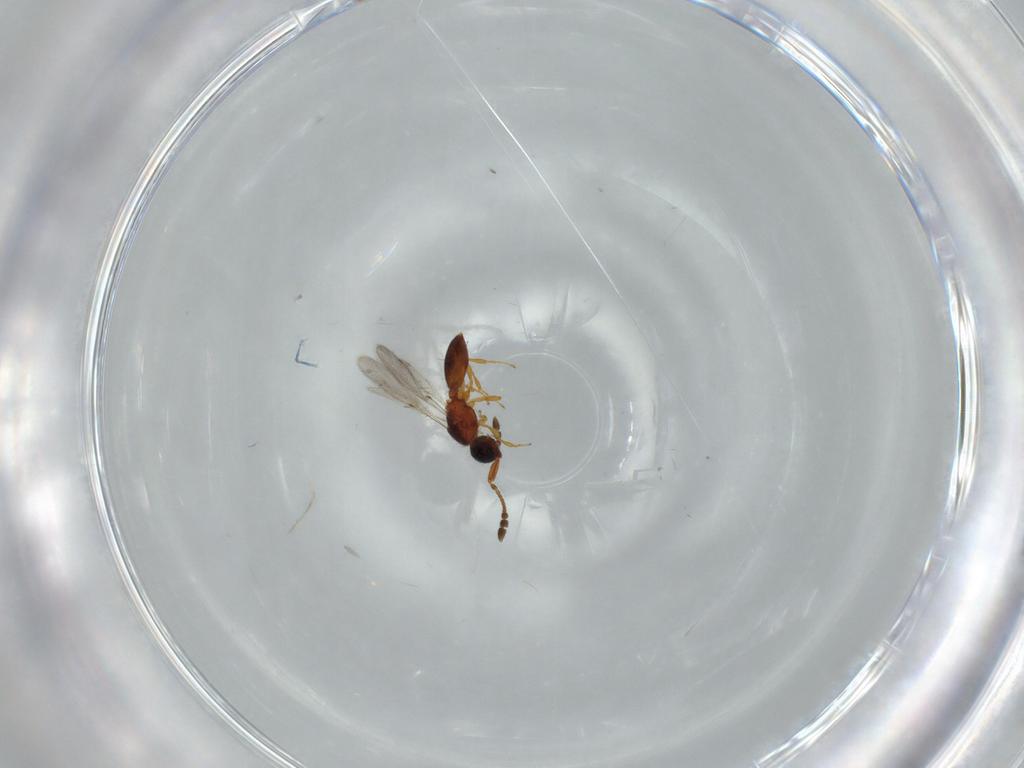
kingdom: Animalia
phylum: Arthropoda
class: Insecta
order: Hymenoptera
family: Diapriidae
